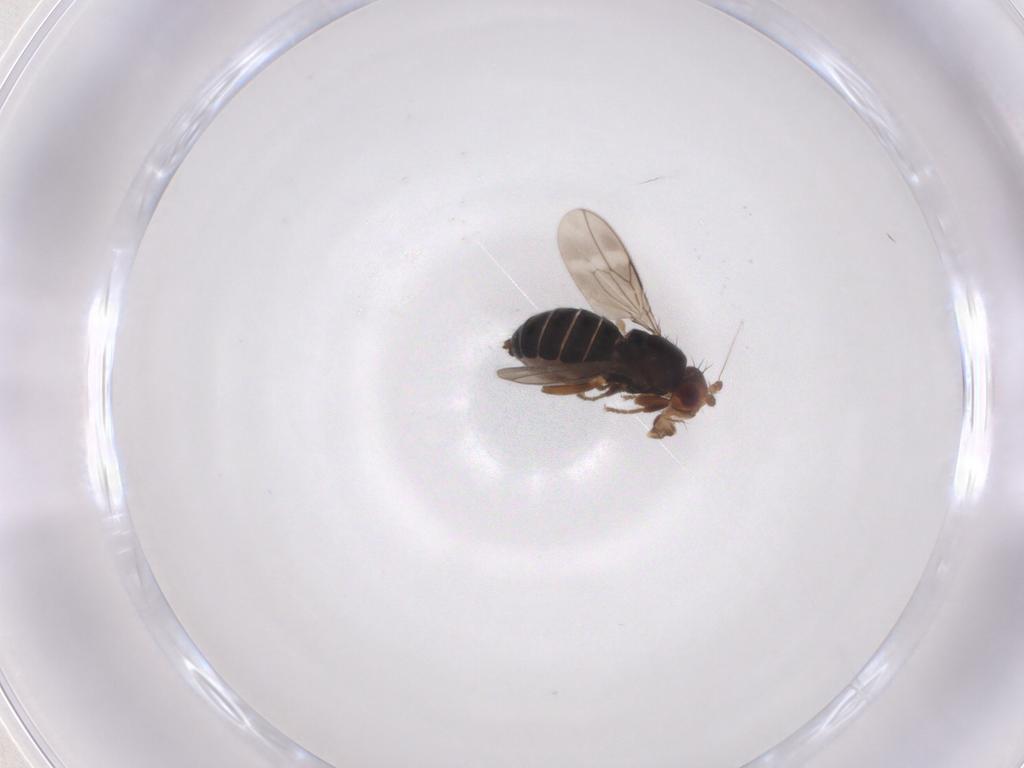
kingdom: Animalia
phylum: Arthropoda
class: Insecta
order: Diptera
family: Sphaeroceridae
